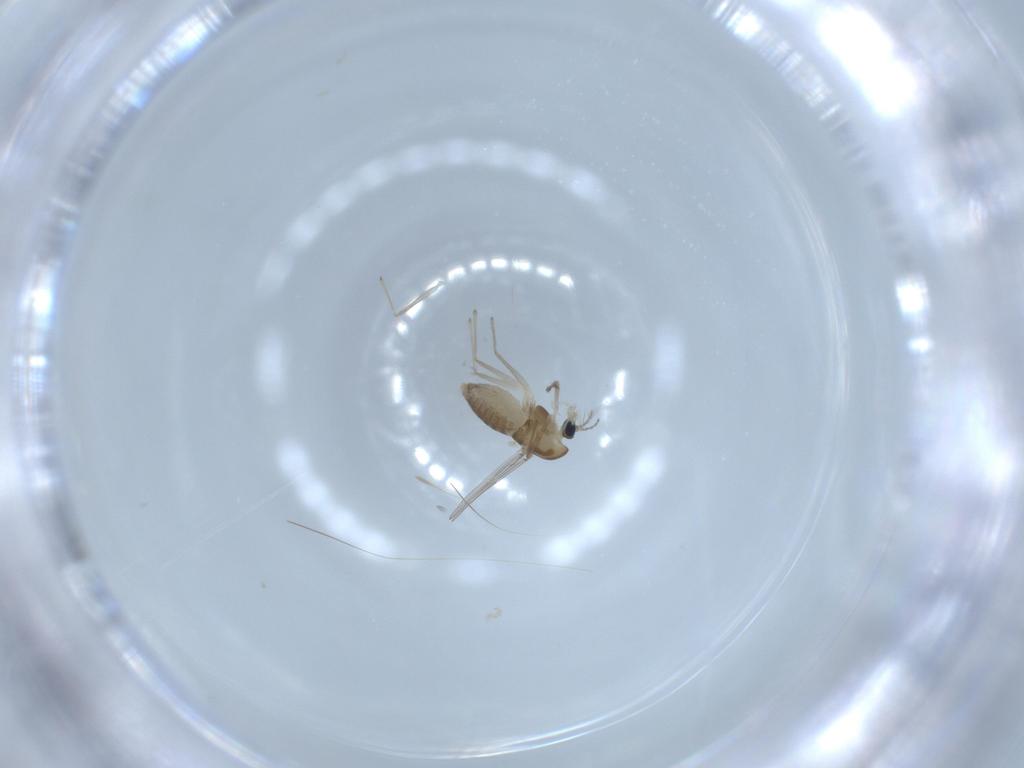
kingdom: Animalia
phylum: Arthropoda
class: Insecta
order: Diptera
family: Chironomidae
